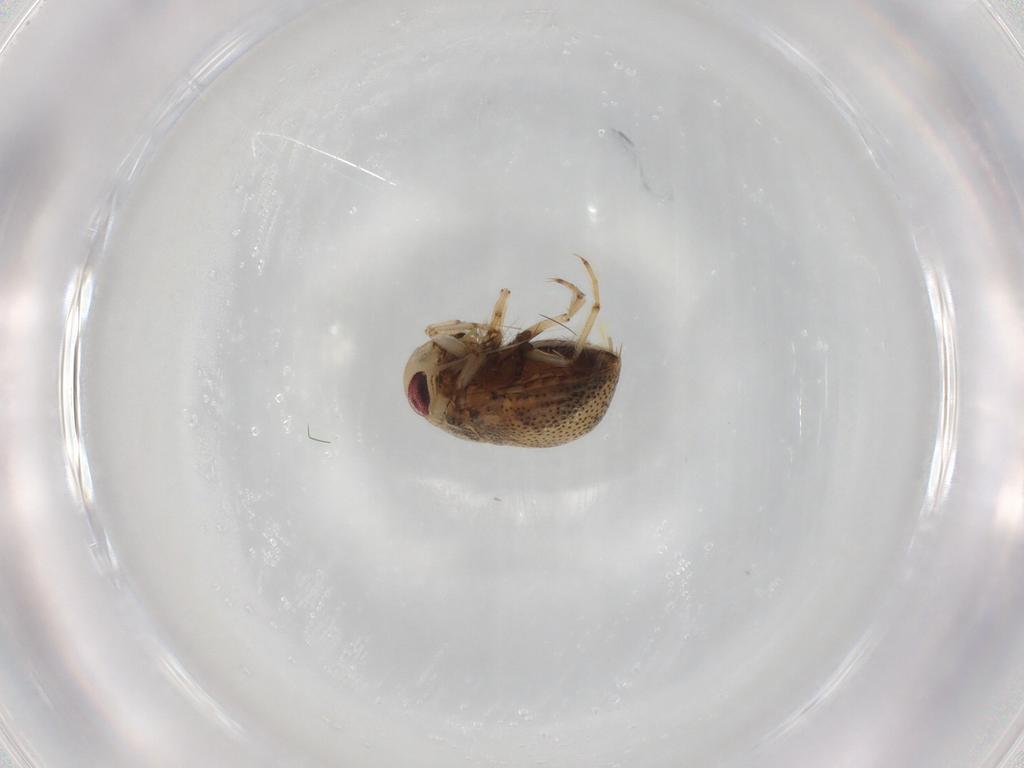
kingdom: Animalia
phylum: Arthropoda
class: Insecta
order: Hemiptera
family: Pleidae
